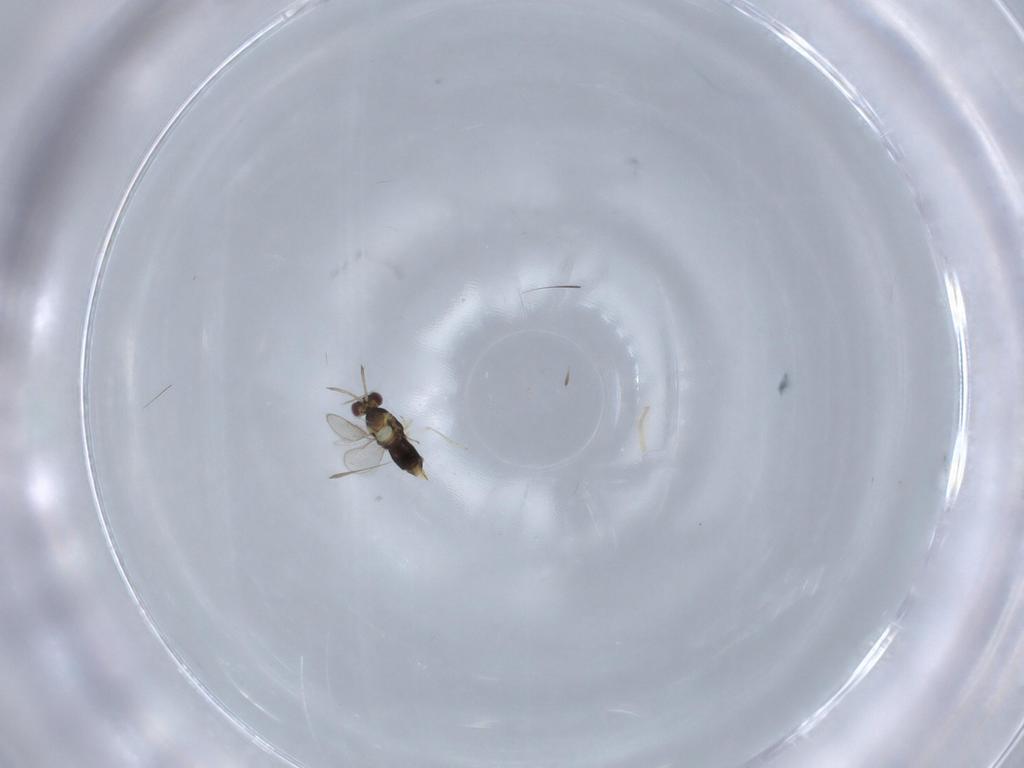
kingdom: Animalia
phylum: Arthropoda
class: Insecta
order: Hymenoptera
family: Aphelinidae
